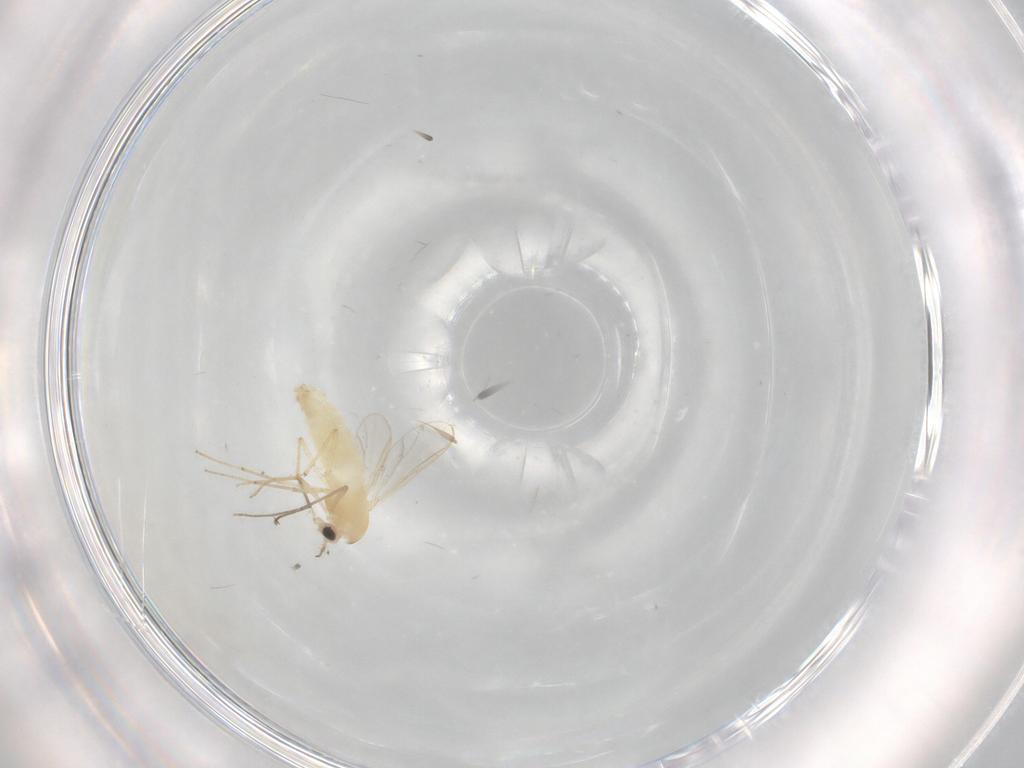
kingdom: Animalia
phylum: Arthropoda
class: Insecta
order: Diptera
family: Chironomidae
